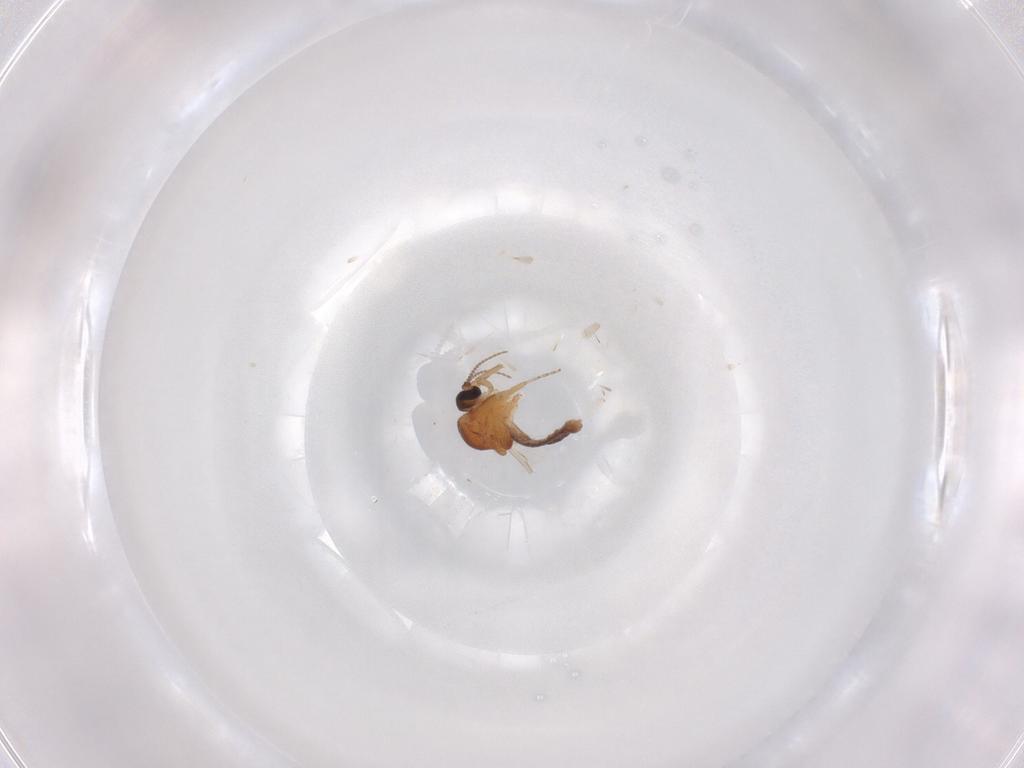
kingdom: Animalia
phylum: Arthropoda
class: Insecta
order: Diptera
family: Ceratopogonidae
